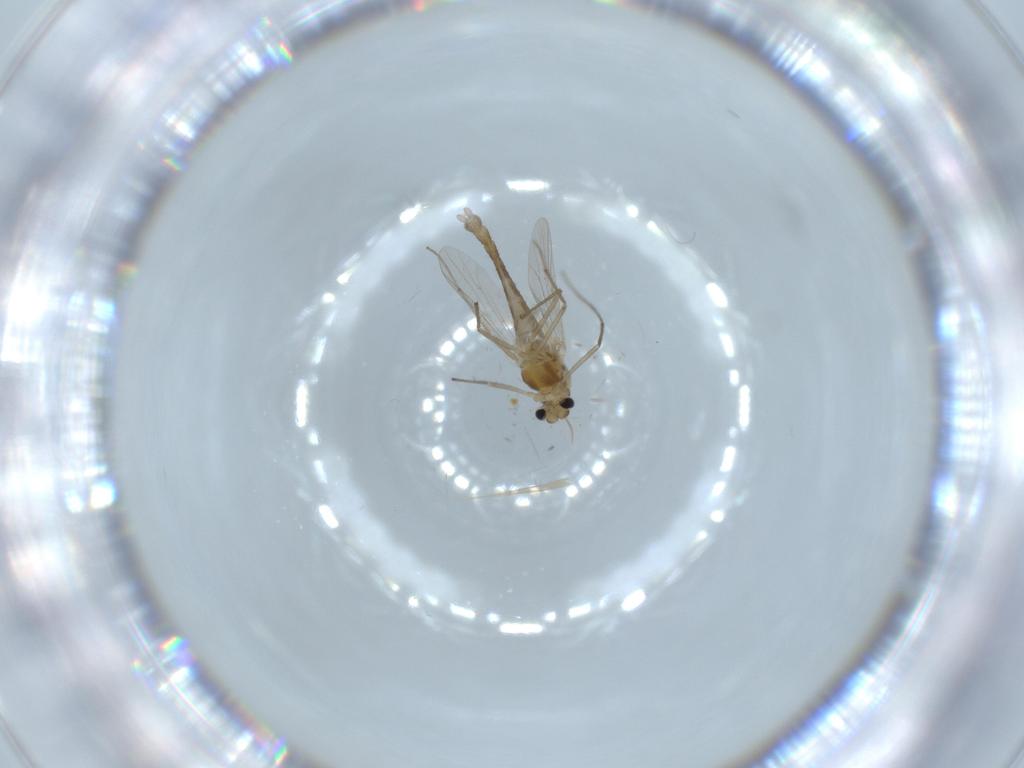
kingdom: Animalia
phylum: Arthropoda
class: Insecta
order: Diptera
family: Chironomidae
